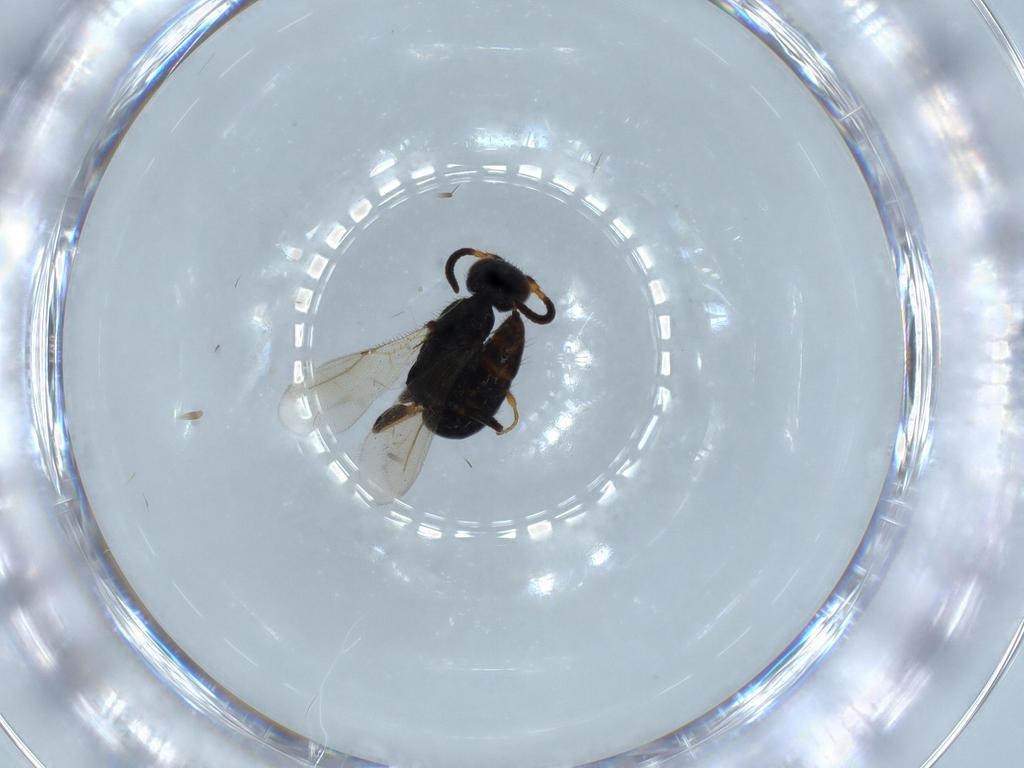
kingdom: Animalia
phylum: Arthropoda
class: Insecta
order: Hymenoptera
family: Bethylidae
